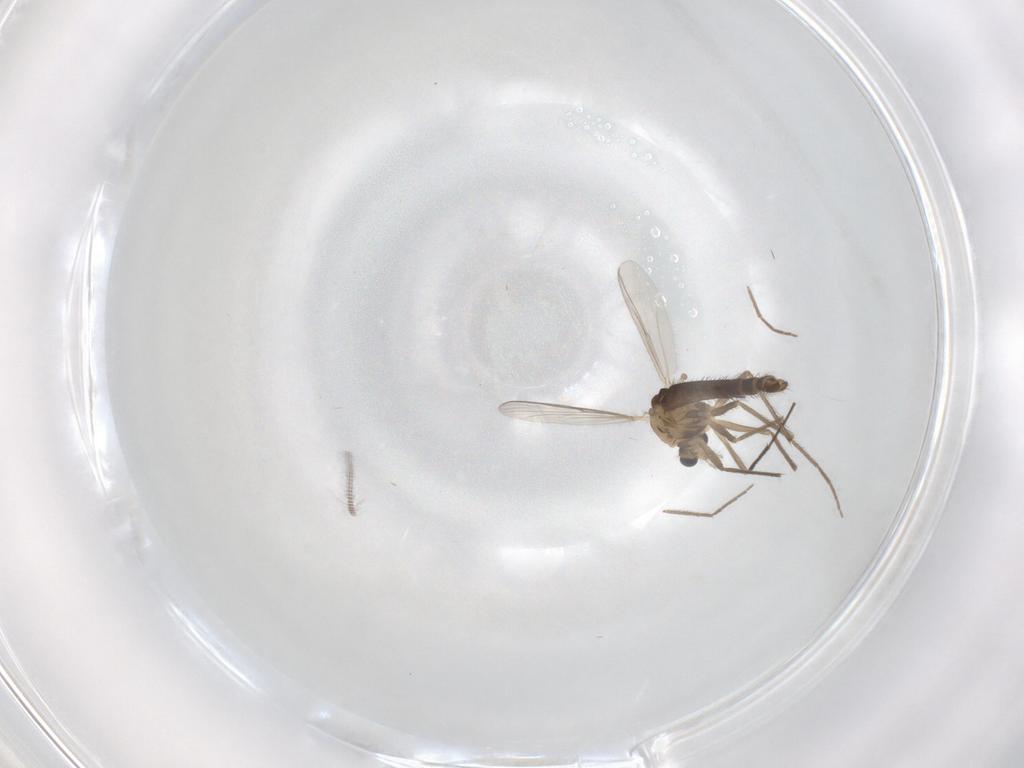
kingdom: Animalia
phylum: Arthropoda
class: Insecta
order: Diptera
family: Chironomidae
